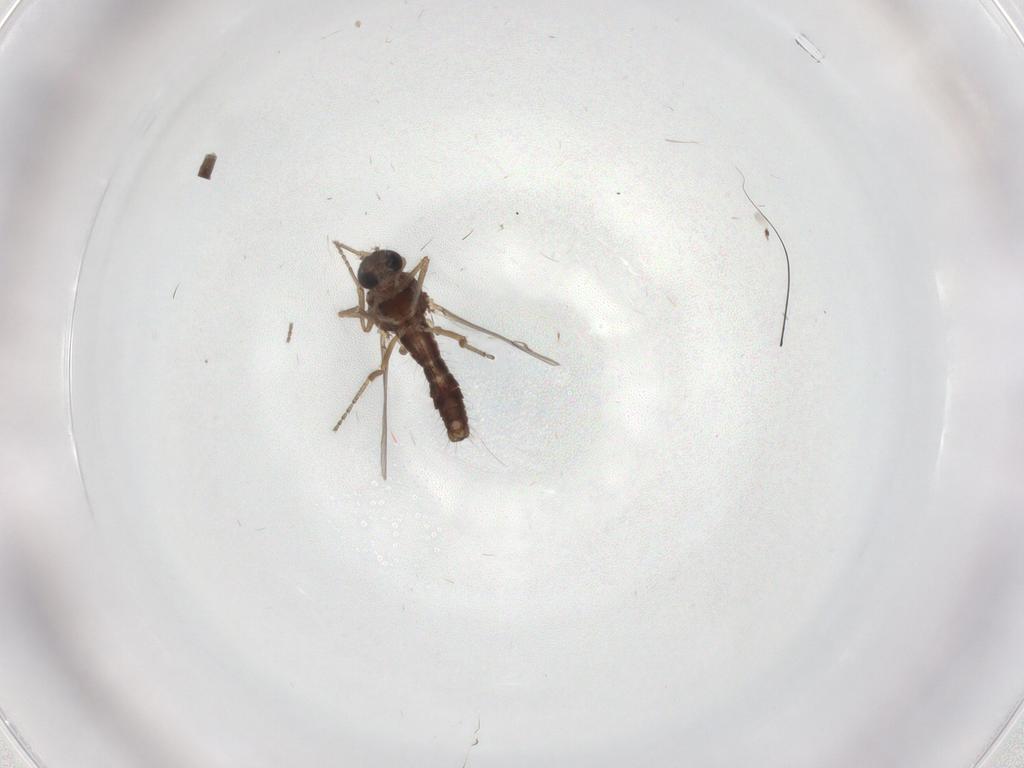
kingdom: Animalia
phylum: Arthropoda
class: Insecta
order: Diptera
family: Ceratopogonidae
